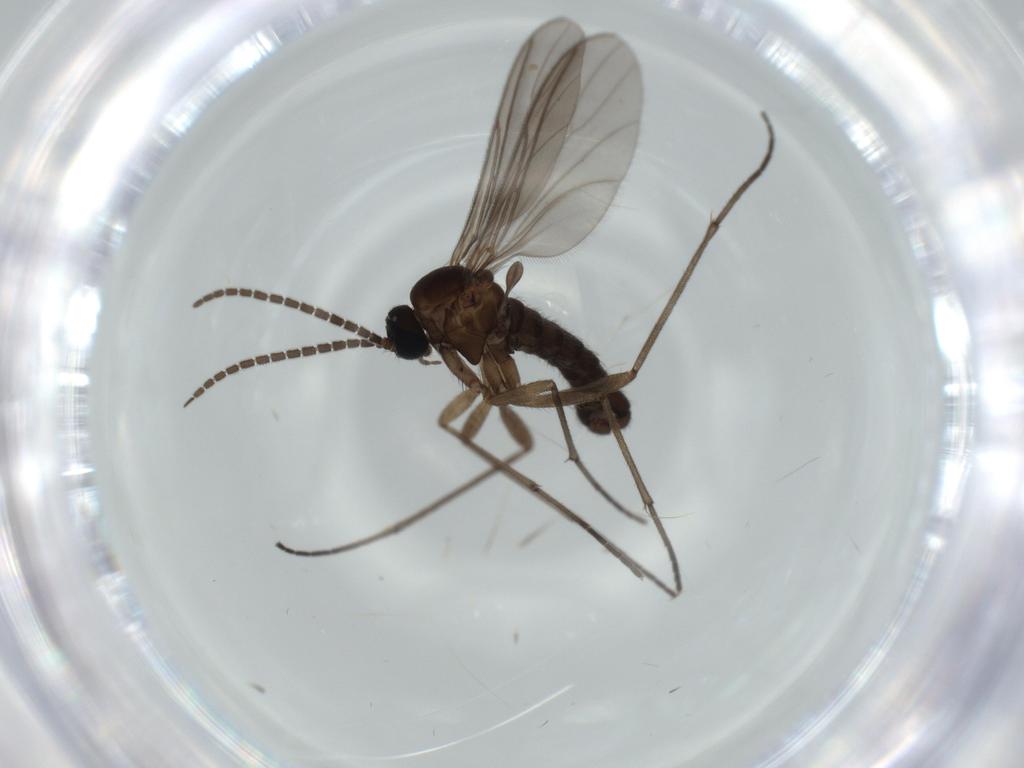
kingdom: Animalia
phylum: Arthropoda
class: Insecta
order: Diptera
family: Sciaridae
